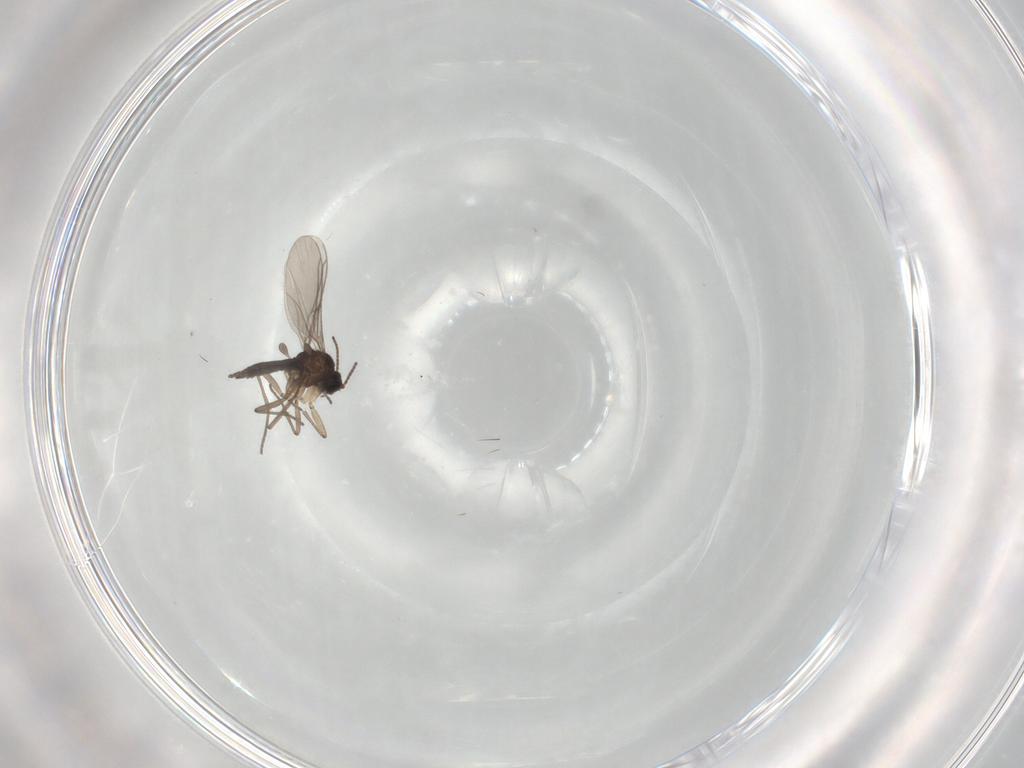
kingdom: Animalia
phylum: Arthropoda
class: Insecta
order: Diptera
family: Sciaridae
